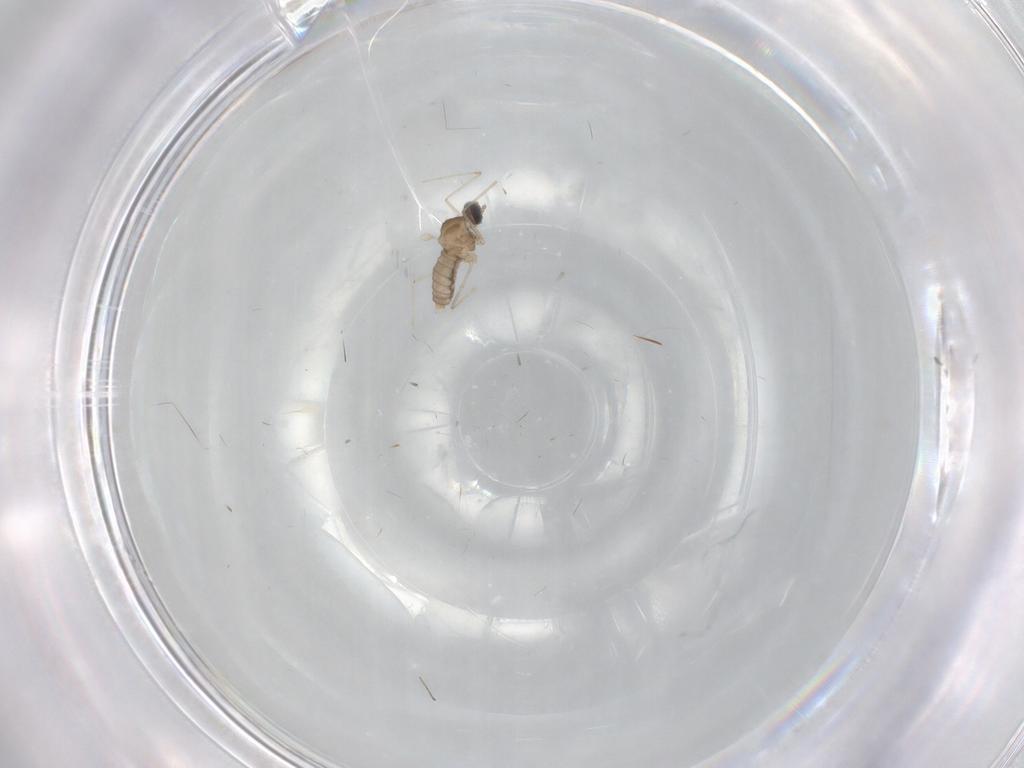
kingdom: Animalia
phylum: Arthropoda
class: Insecta
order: Diptera
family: Cecidomyiidae
